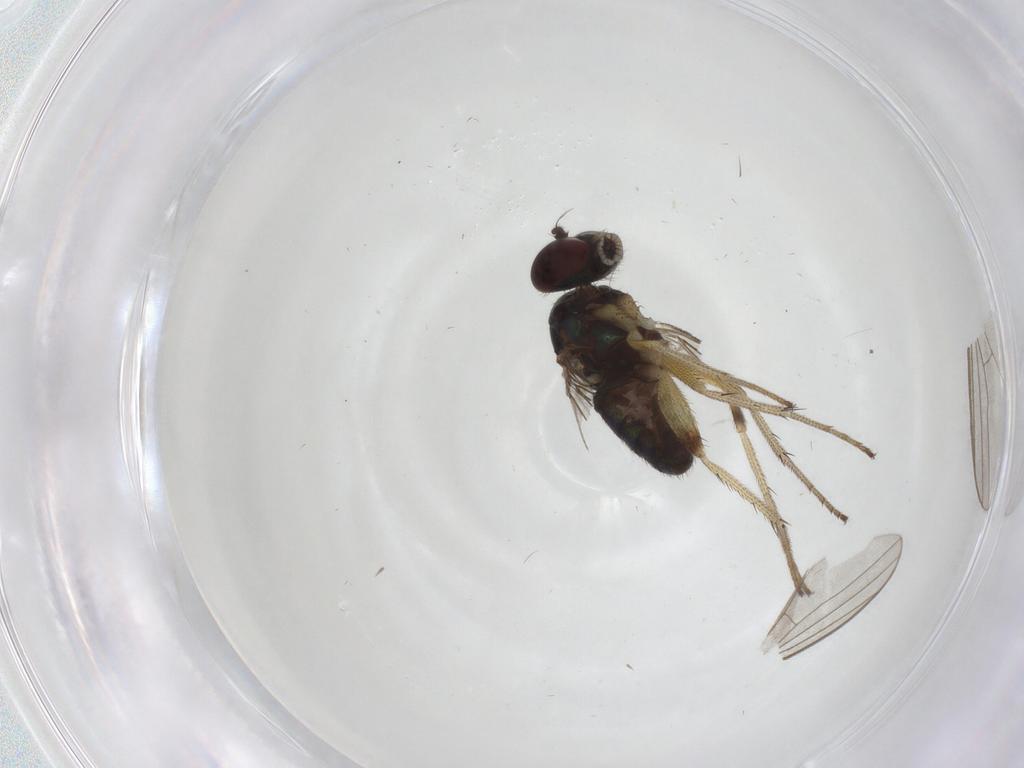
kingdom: Animalia
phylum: Arthropoda
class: Insecta
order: Diptera
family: Dolichopodidae
